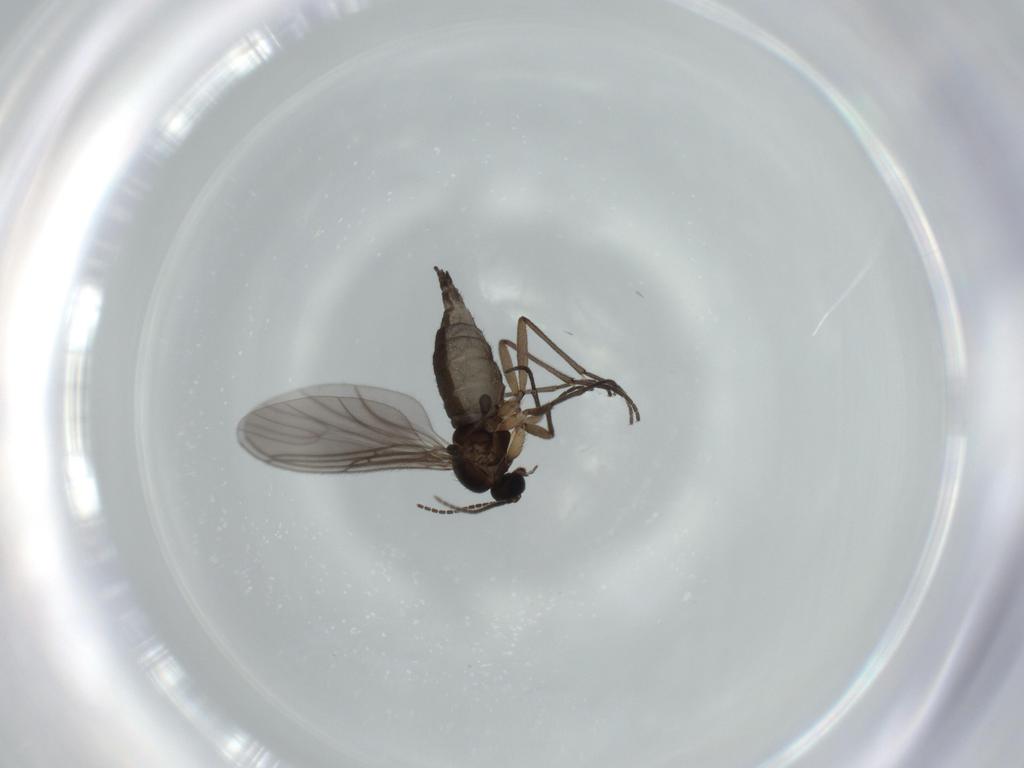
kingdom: Animalia
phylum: Arthropoda
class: Insecta
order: Diptera
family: Sciaridae
